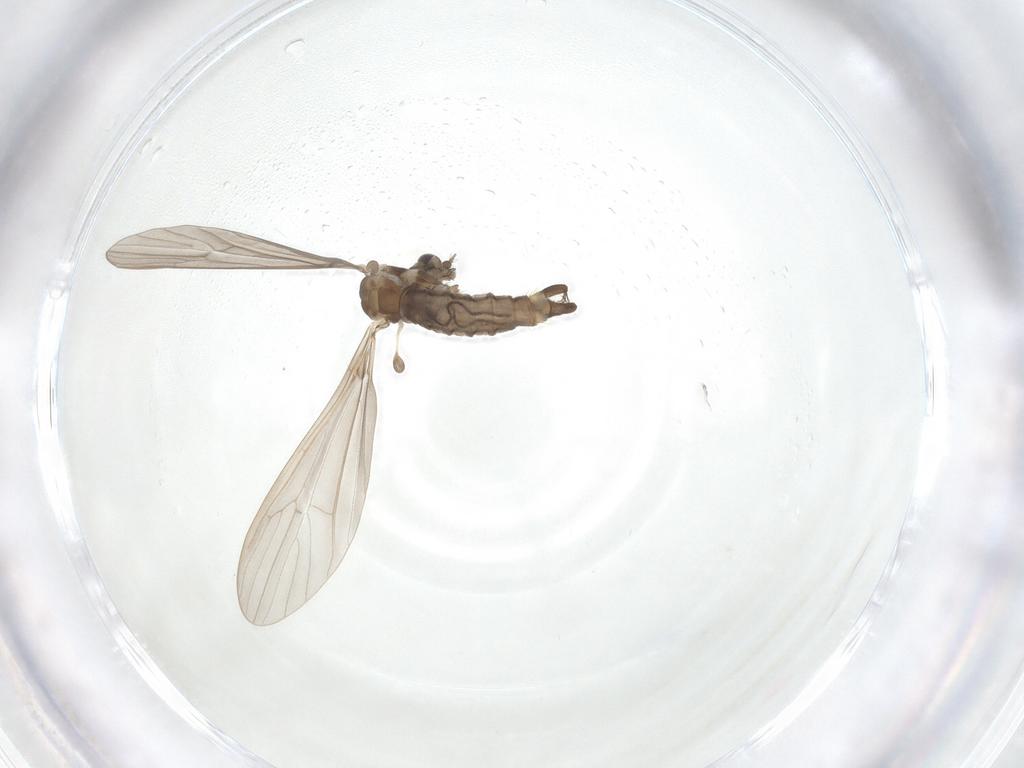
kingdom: Animalia
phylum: Arthropoda
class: Insecta
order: Diptera
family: Limoniidae
